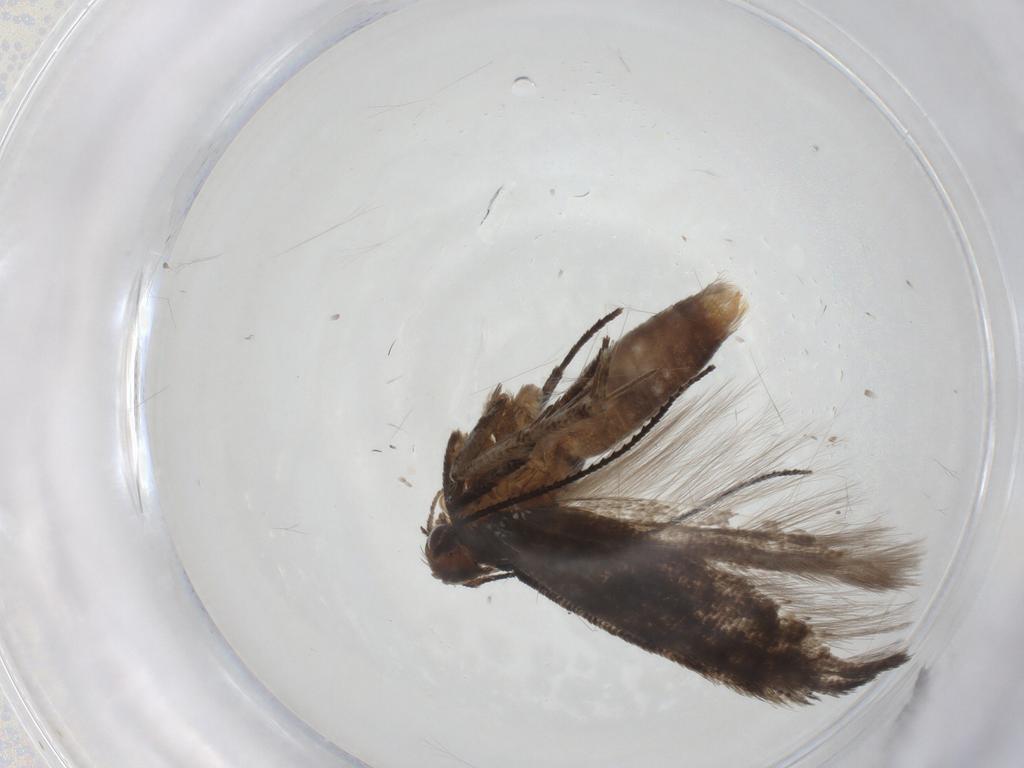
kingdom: Animalia
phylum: Arthropoda
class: Insecta
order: Lepidoptera
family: Gelechiidae
